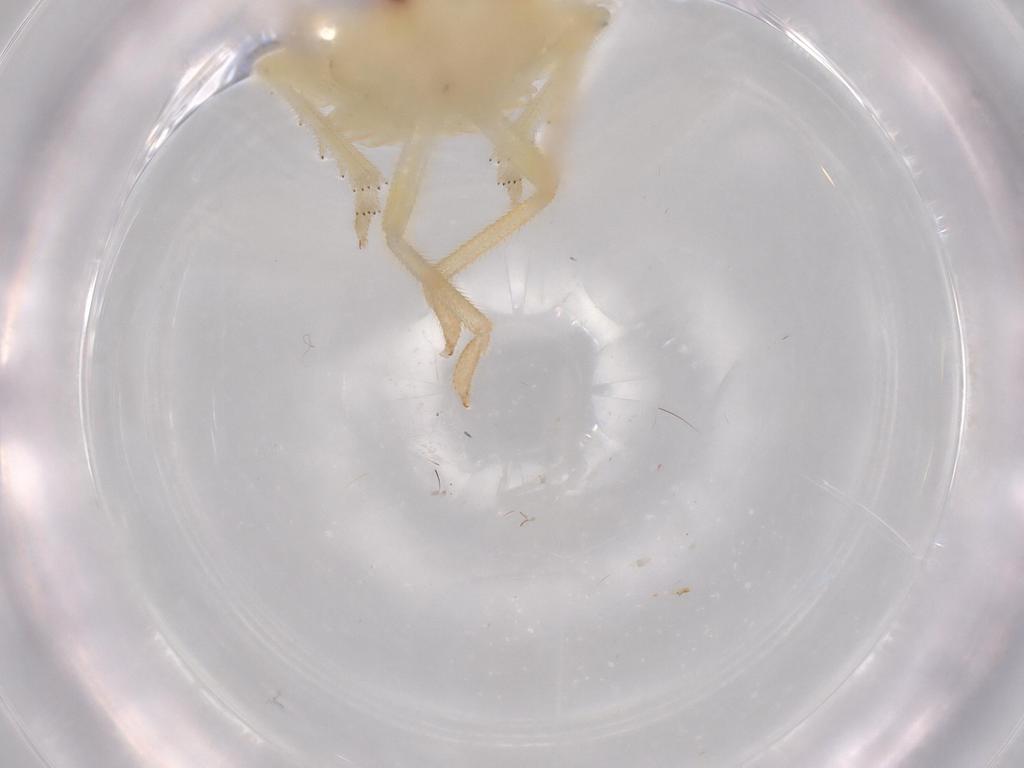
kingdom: Animalia
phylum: Arthropoda
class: Insecta
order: Hemiptera
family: Tropiduchidae
